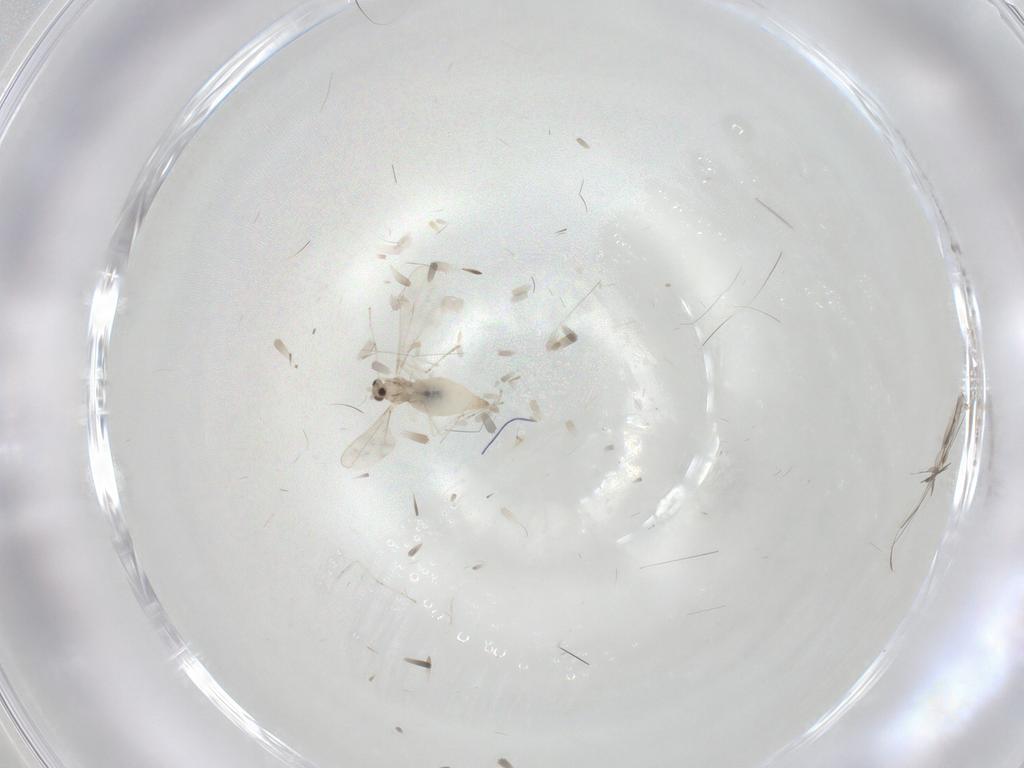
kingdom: Animalia
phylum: Arthropoda
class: Insecta
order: Diptera
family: Cecidomyiidae
